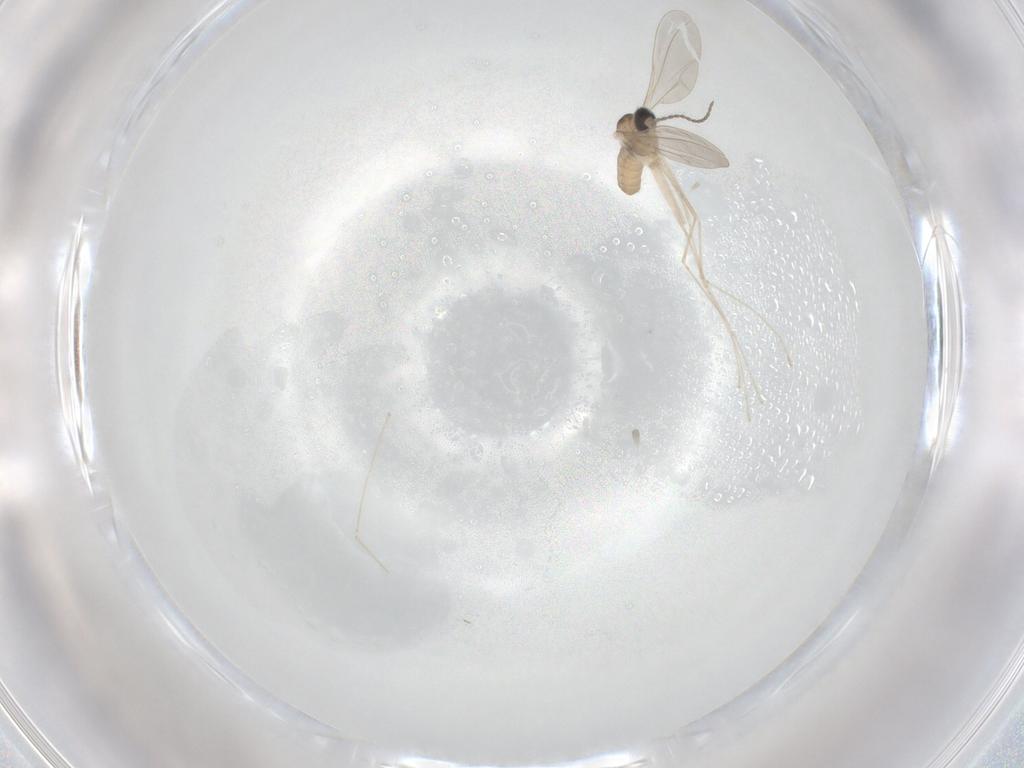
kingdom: Animalia
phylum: Arthropoda
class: Insecta
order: Diptera
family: Cecidomyiidae
